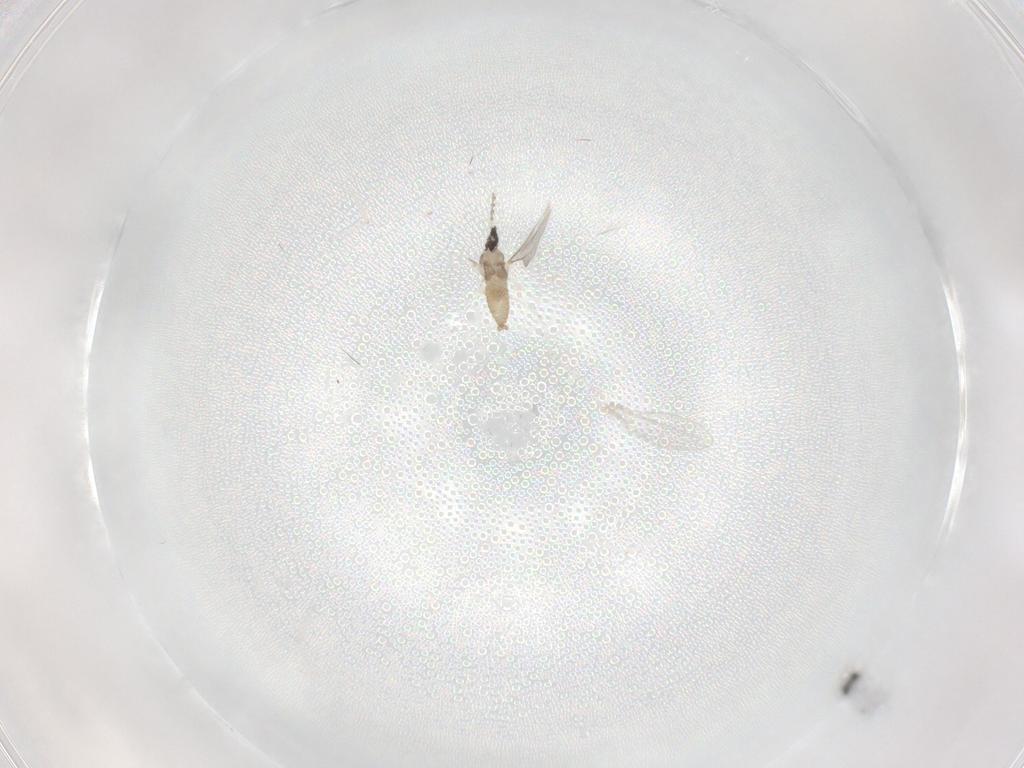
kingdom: Animalia
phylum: Arthropoda
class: Insecta
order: Diptera
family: Cecidomyiidae
